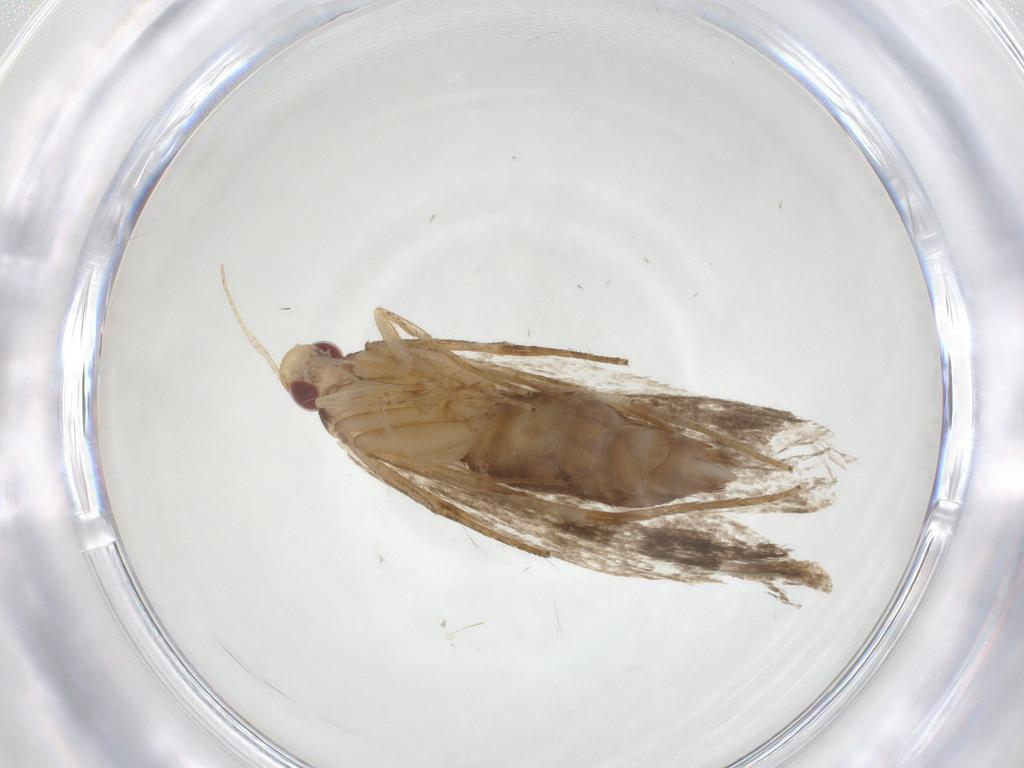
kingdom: Animalia
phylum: Arthropoda
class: Insecta
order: Lepidoptera
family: Depressariidae
